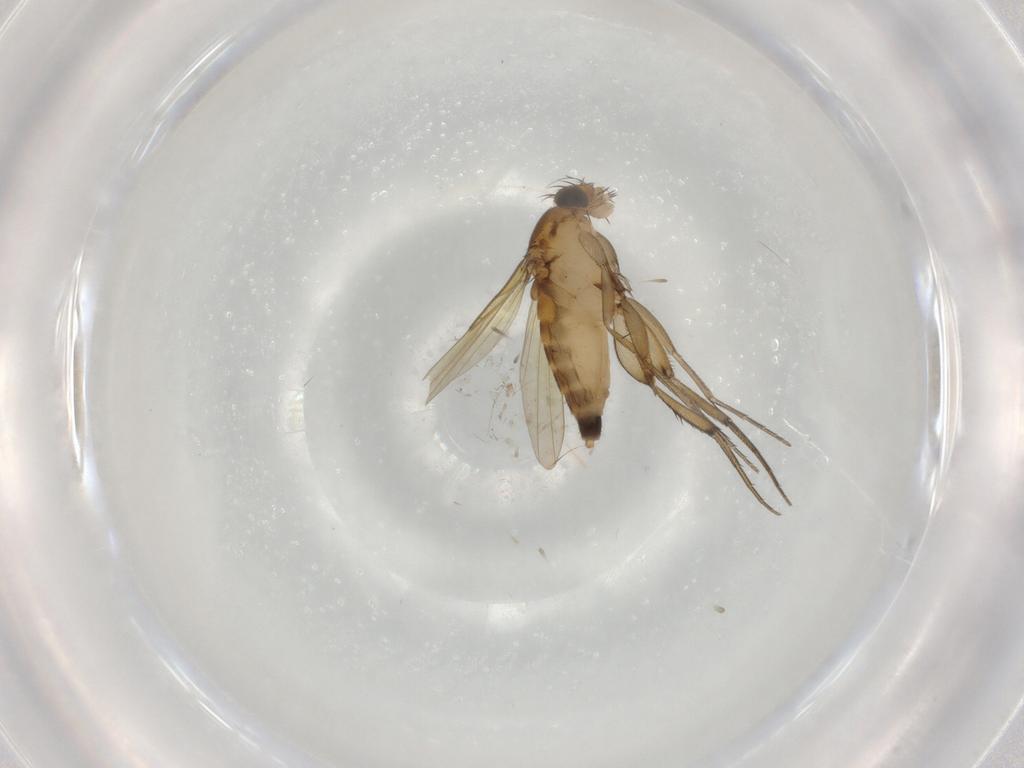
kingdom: Animalia
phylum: Arthropoda
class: Insecta
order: Diptera
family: Phoridae
